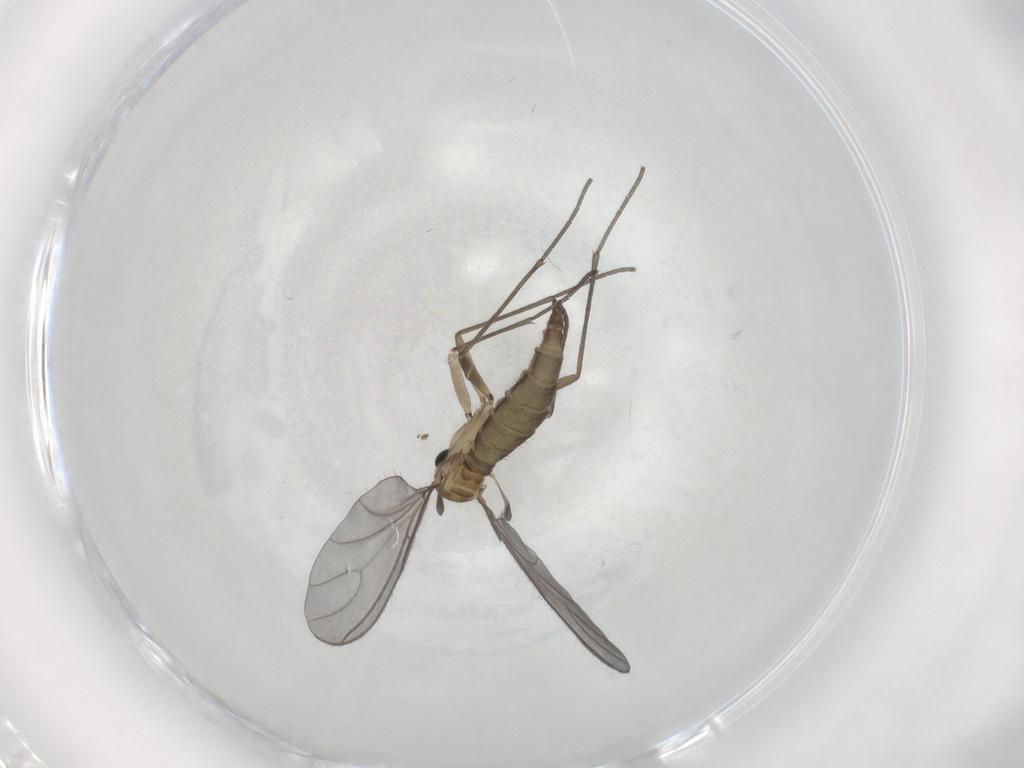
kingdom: Animalia
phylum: Arthropoda
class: Insecta
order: Diptera
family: Sciaridae
